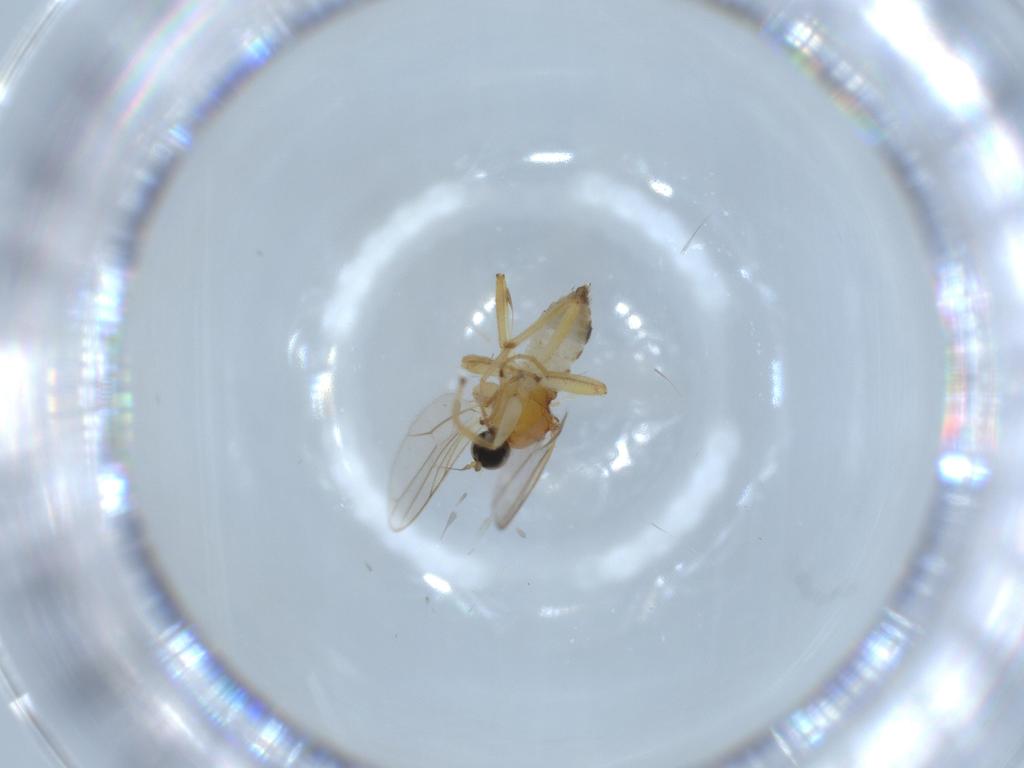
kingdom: Animalia
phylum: Arthropoda
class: Insecta
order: Diptera
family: Hybotidae
